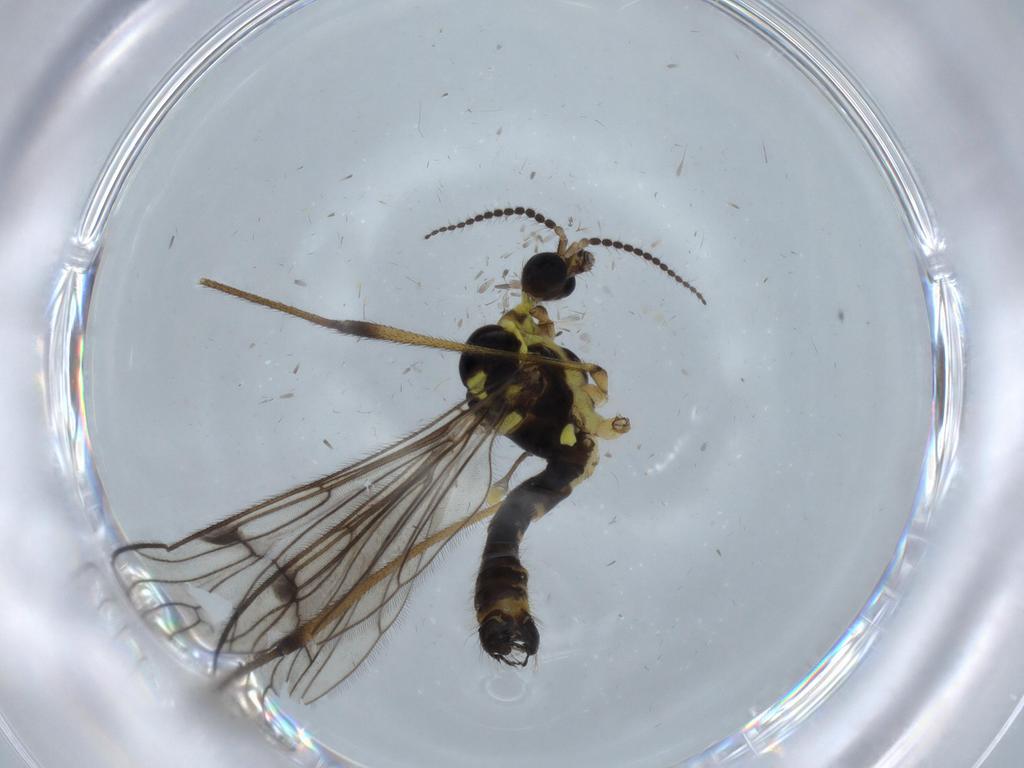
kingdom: Animalia
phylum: Arthropoda
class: Insecta
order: Diptera
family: Limoniidae
